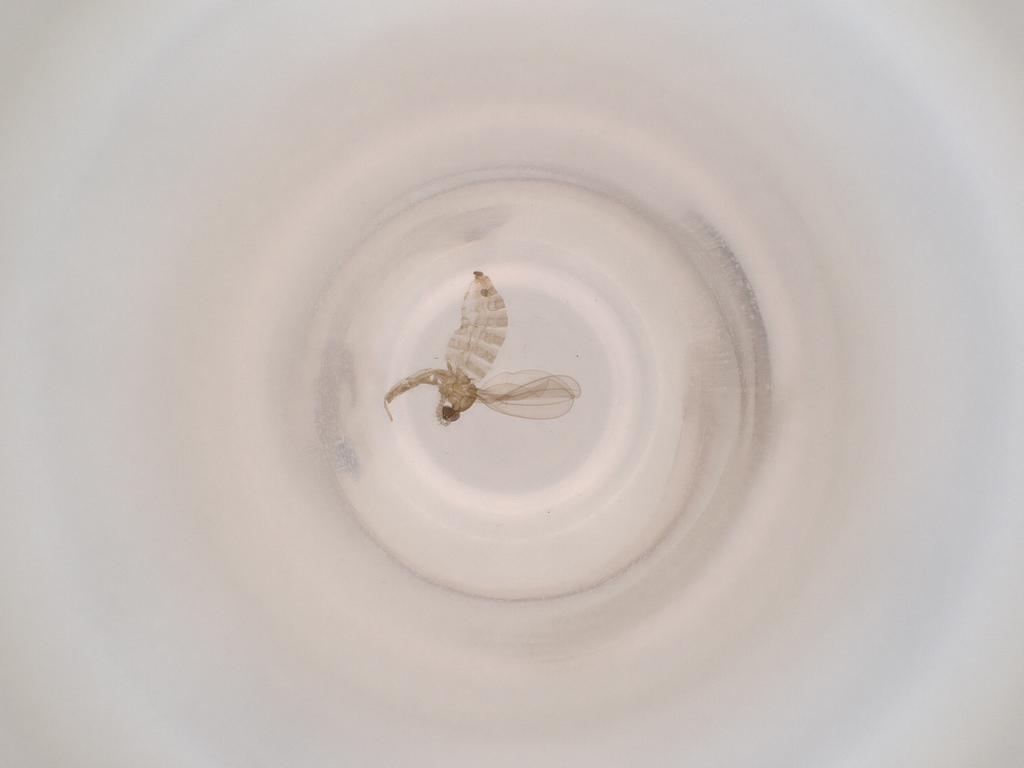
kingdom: Animalia
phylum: Arthropoda
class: Insecta
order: Diptera
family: Cecidomyiidae
